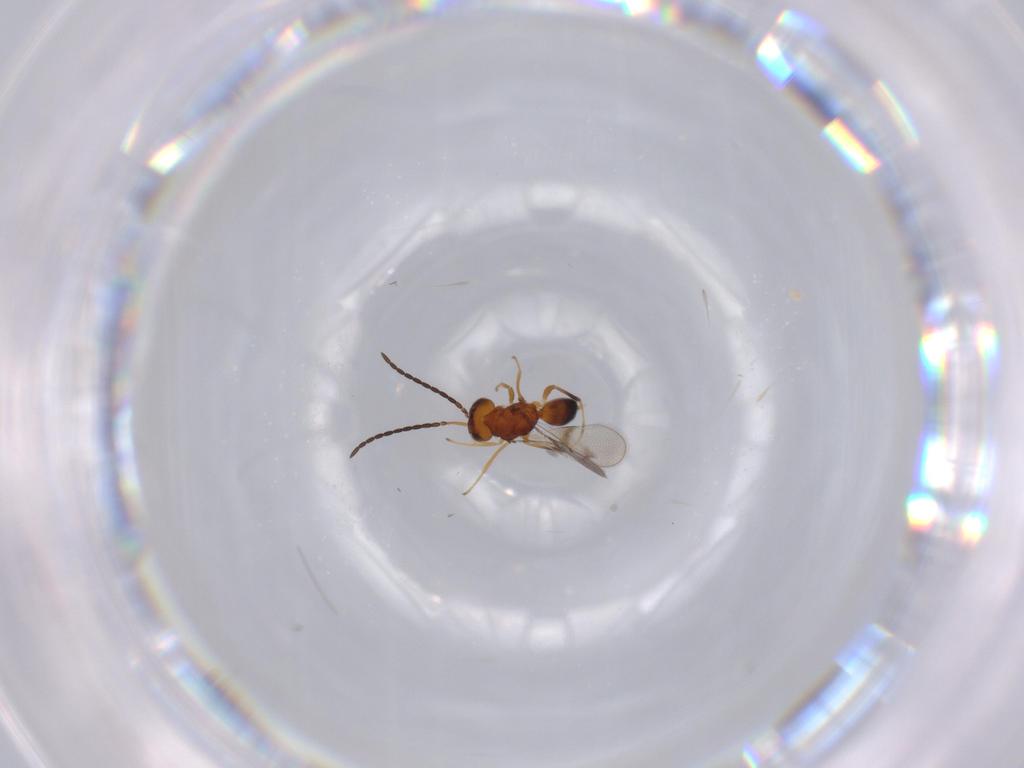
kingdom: Animalia
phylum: Arthropoda
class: Insecta
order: Hymenoptera
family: Evaniidae
